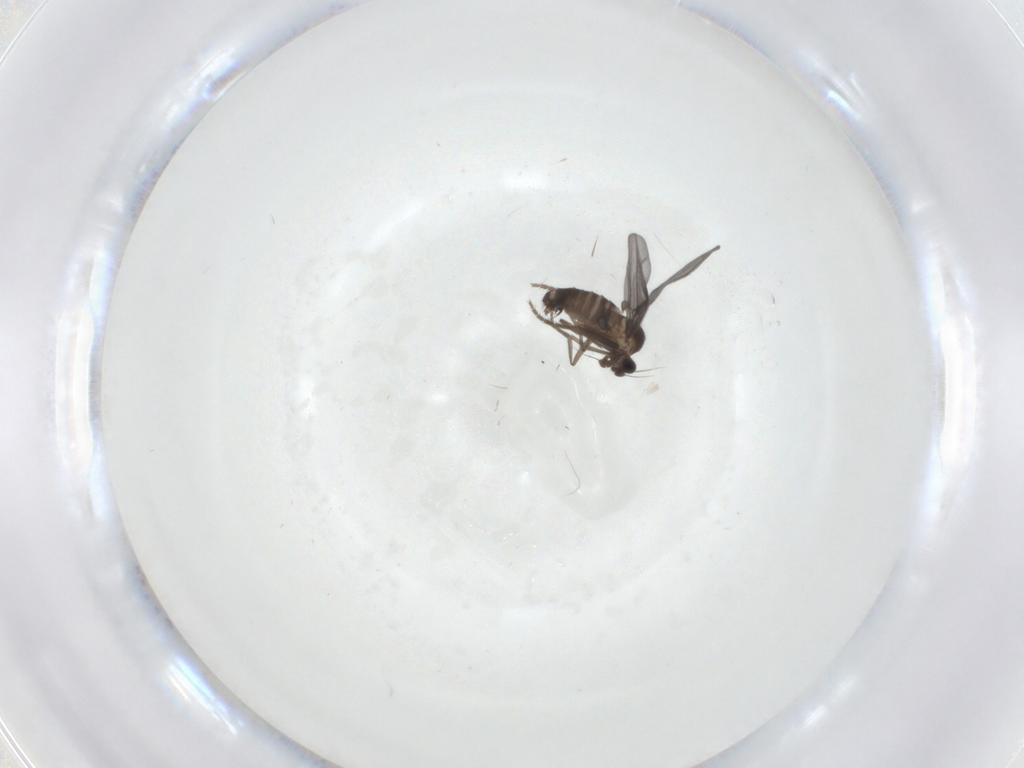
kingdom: Animalia
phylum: Arthropoda
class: Insecta
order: Diptera
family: Phoridae
